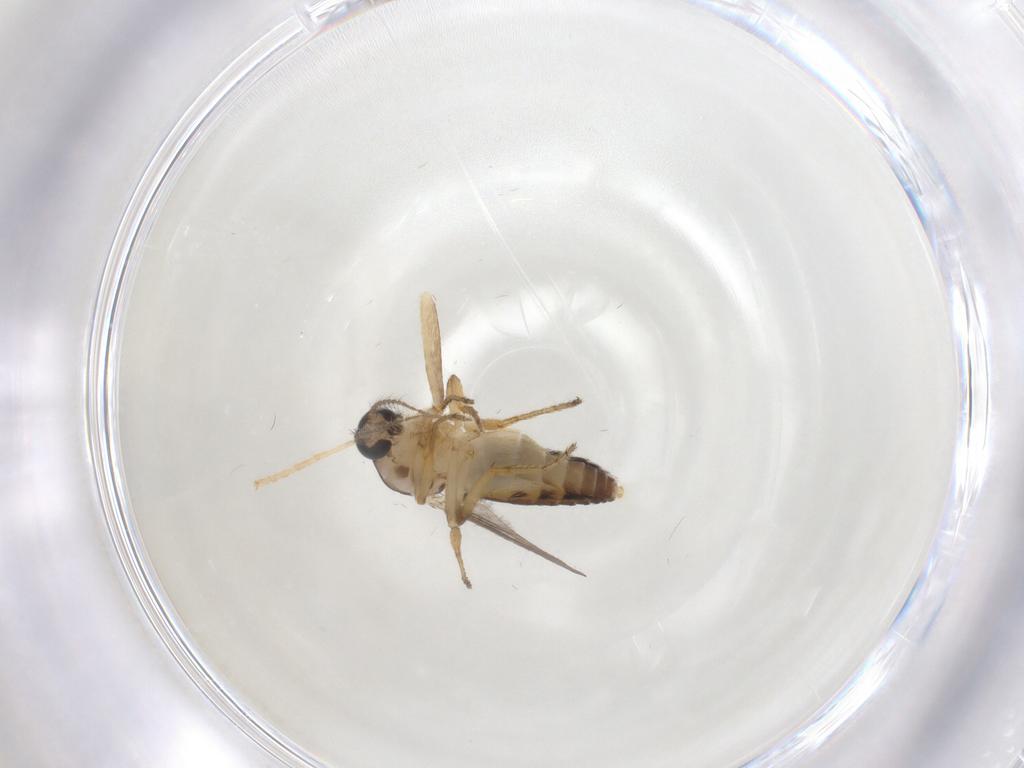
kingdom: Animalia
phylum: Arthropoda
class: Insecta
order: Diptera
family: Ceratopogonidae
